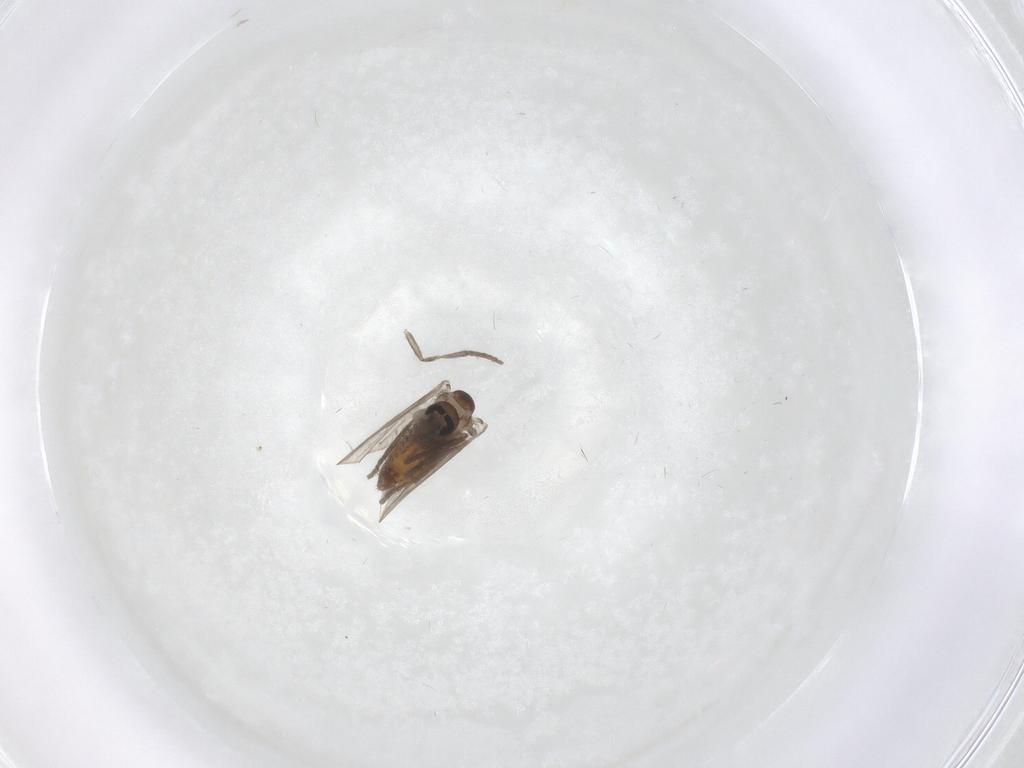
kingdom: Animalia
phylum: Arthropoda
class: Insecta
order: Diptera
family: Psychodidae
